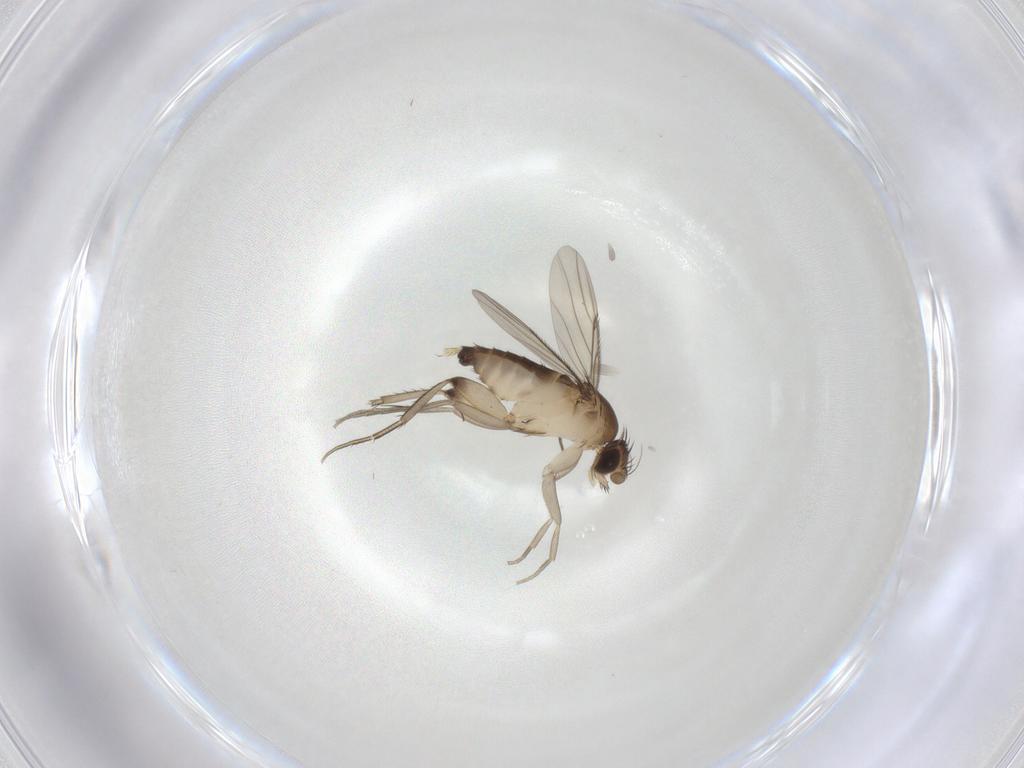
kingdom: Animalia
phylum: Arthropoda
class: Insecta
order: Diptera
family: Phoridae
